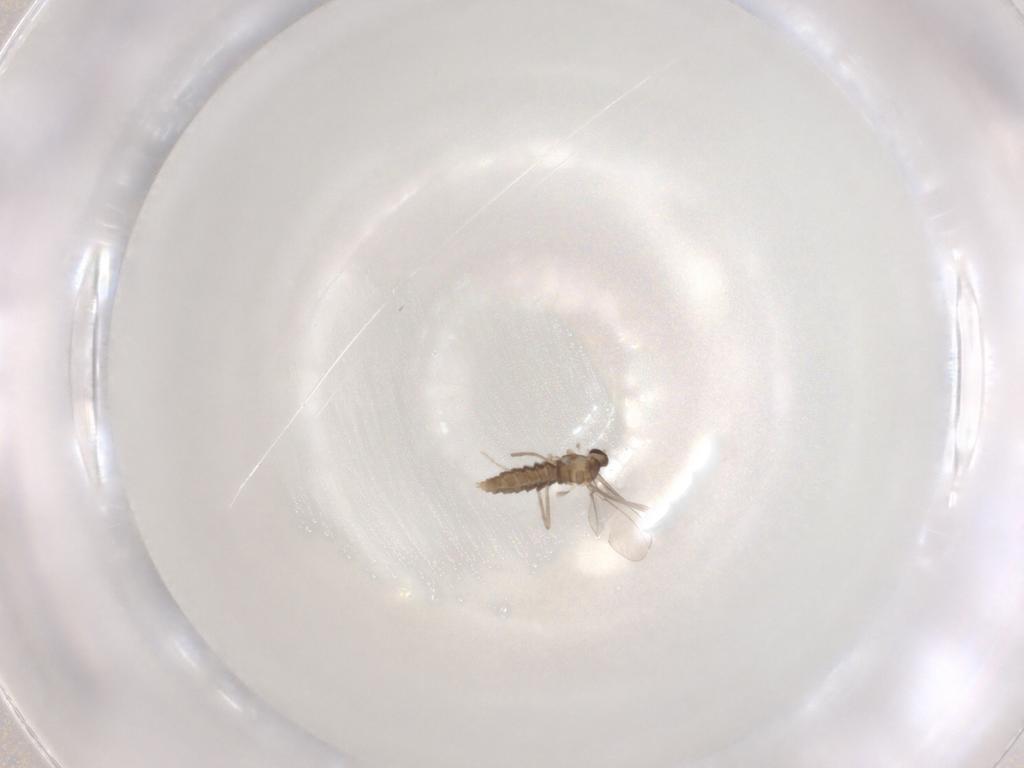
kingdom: Animalia
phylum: Arthropoda
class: Insecta
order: Diptera
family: Cecidomyiidae
